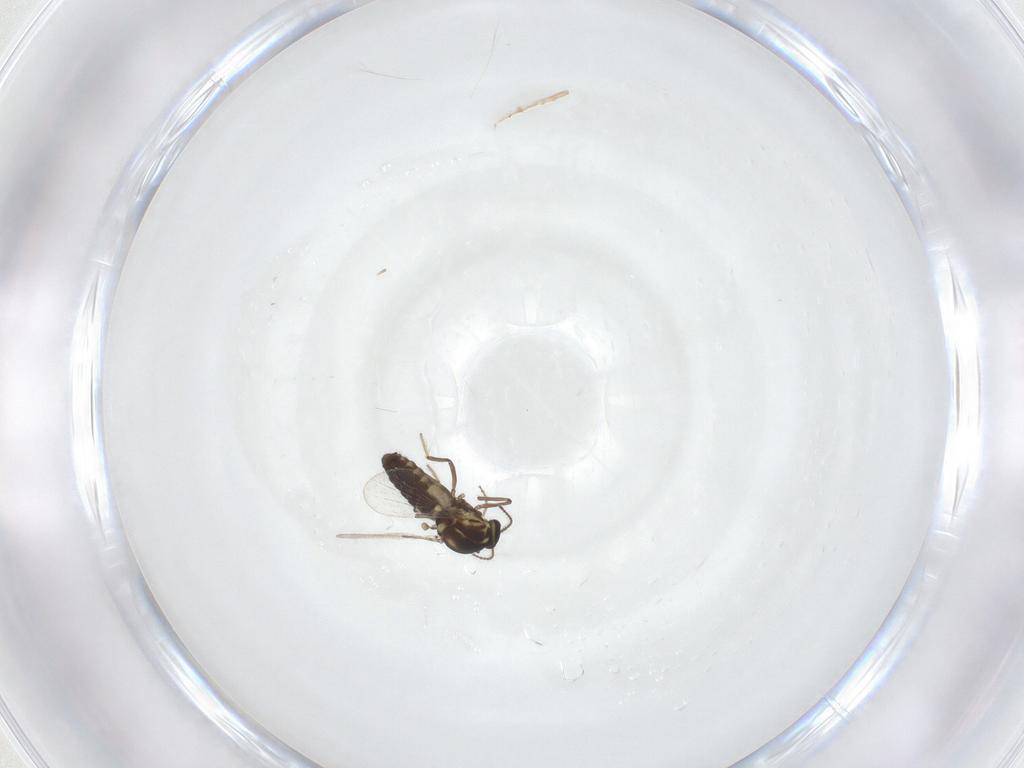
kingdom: Animalia
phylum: Arthropoda
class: Insecta
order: Diptera
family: Ceratopogonidae
